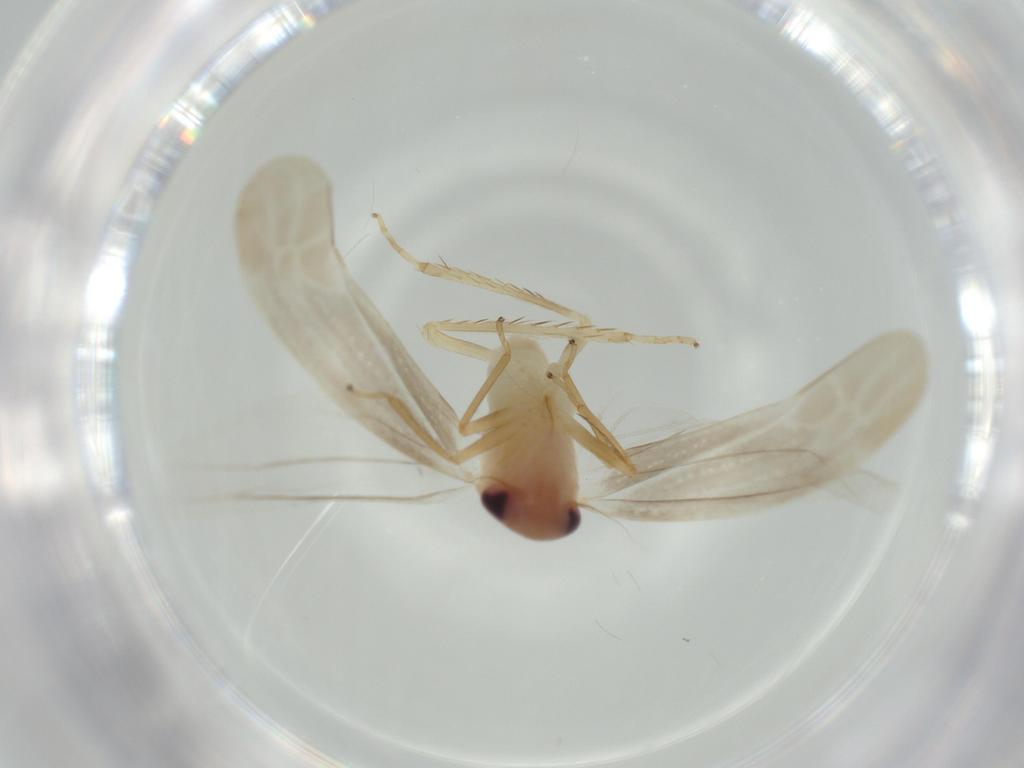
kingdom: Animalia
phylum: Arthropoda
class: Insecta
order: Hemiptera
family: Cicadellidae
